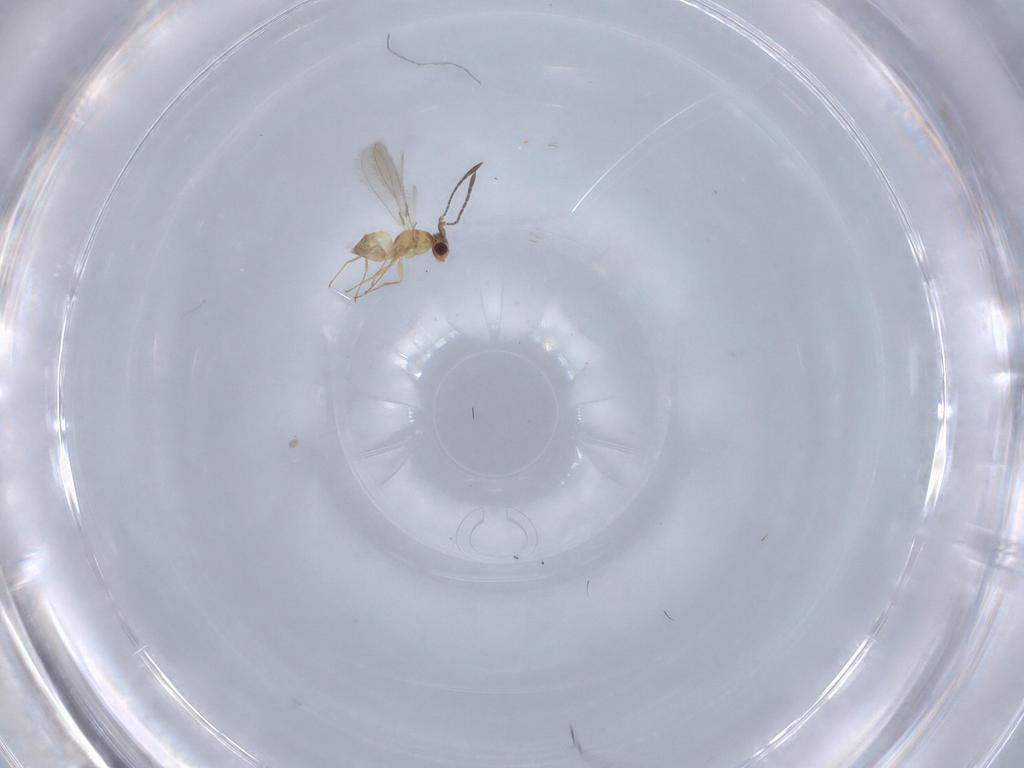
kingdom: Animalia
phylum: Arthropoda
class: Insecta
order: Hymenoptera
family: Mymaridae
